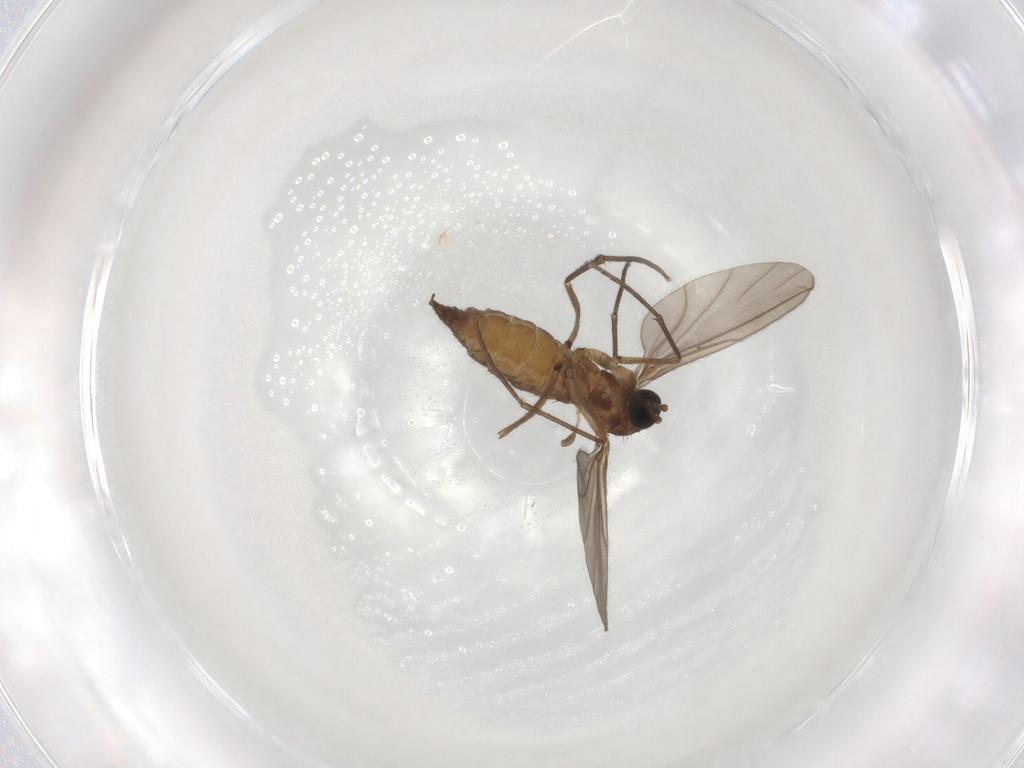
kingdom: Animalia
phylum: Arthropoda
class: Insecta
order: Diptera
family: Sciaridae
